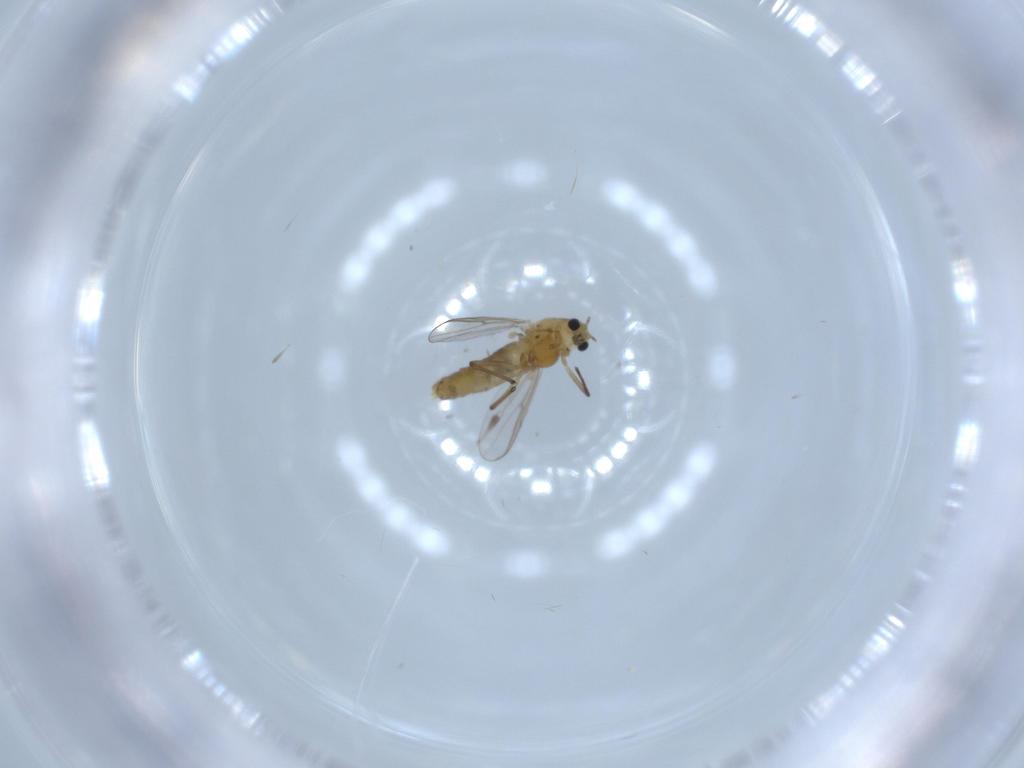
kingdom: Animalia
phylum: Arthropoda
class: Insecta
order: Diptera
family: Chironomidae
